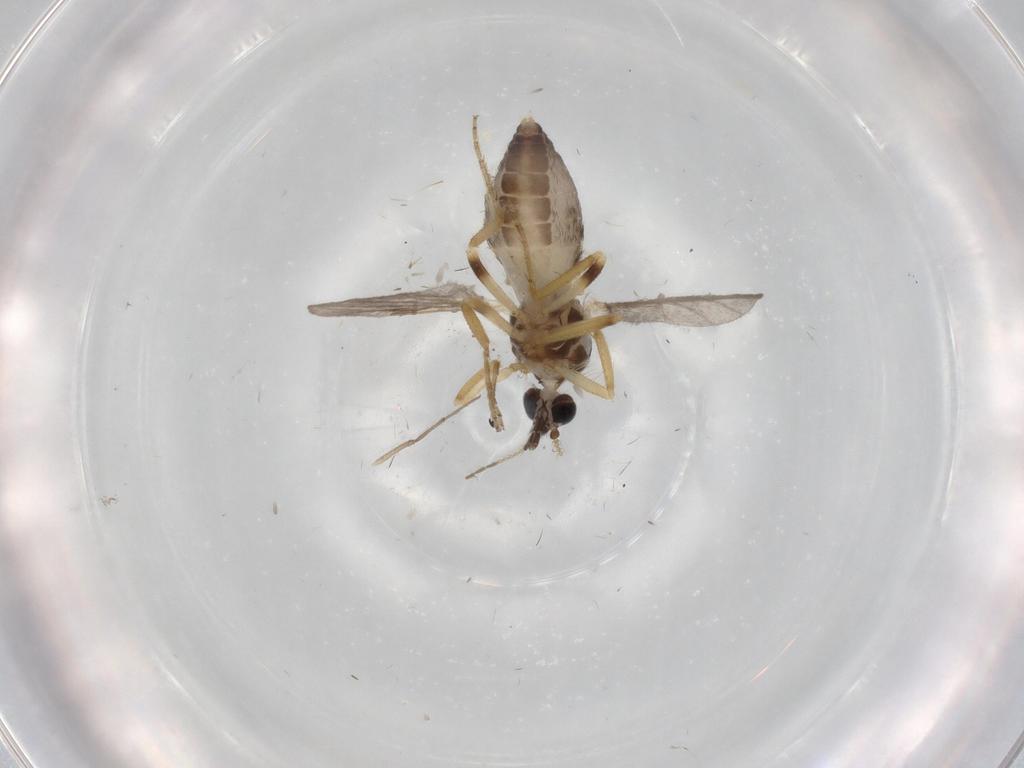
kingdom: Animalia
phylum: Arthropoda
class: Insecta
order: Diptera
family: Ceratopogonidae
